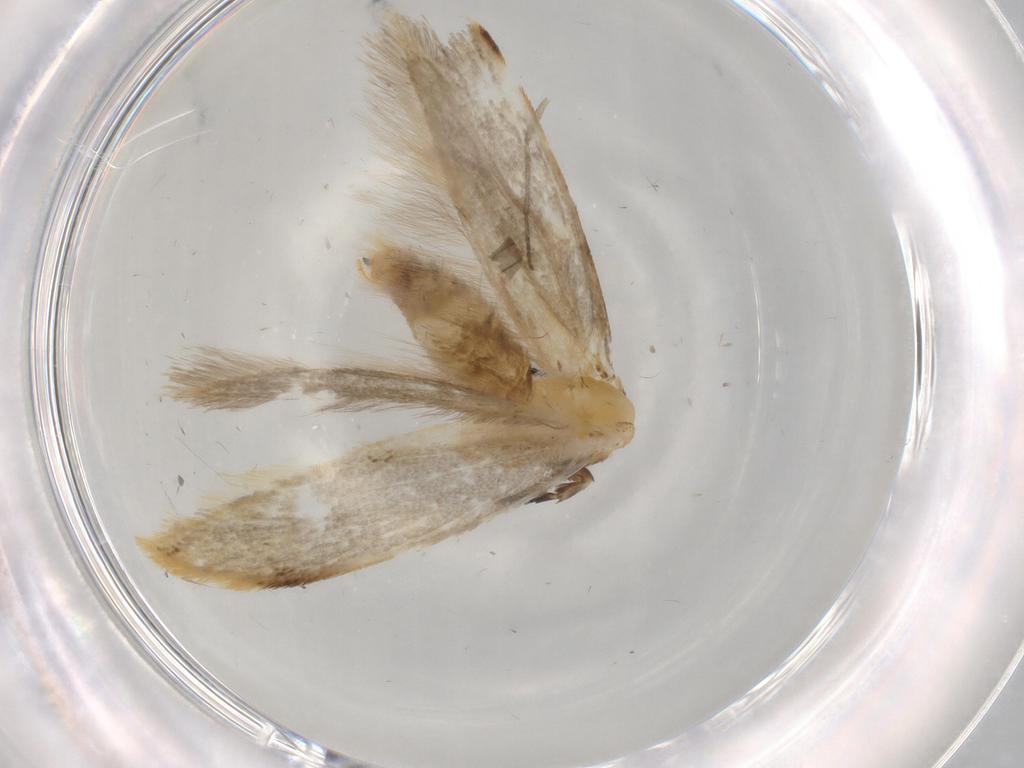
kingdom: Animalia
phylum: Arthropoda
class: Insecta
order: Lepidoptera
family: Tineidae
